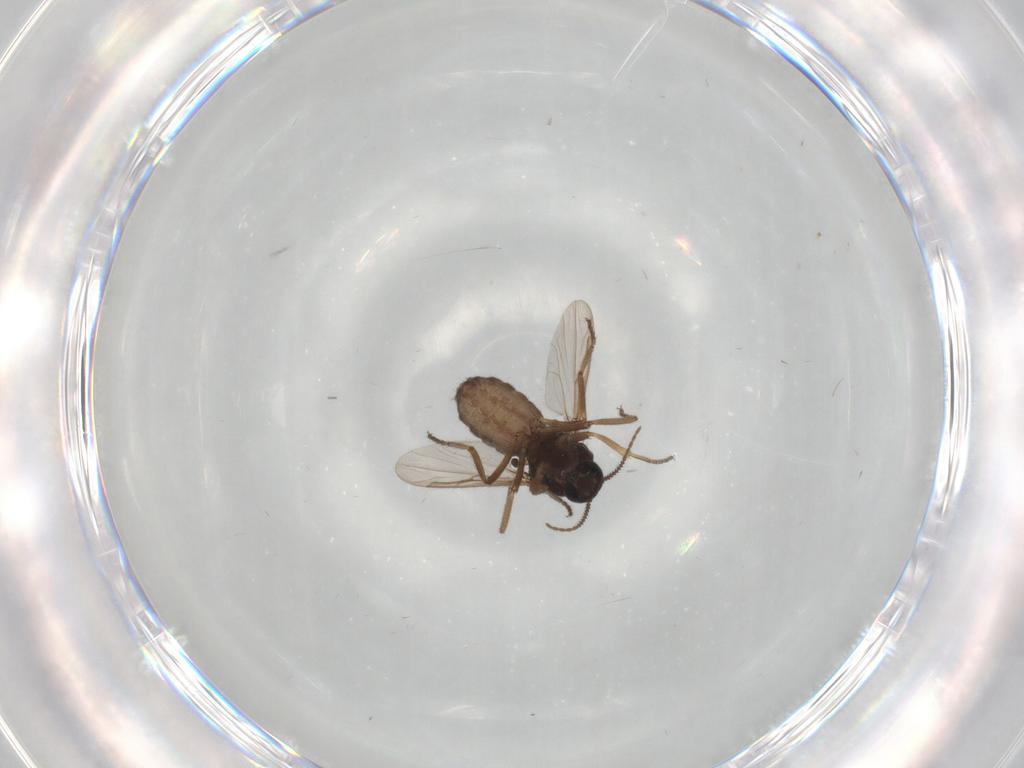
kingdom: Animalia
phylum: Arthropoda
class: Insecta
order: Diptera
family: Ceratopogonidae
